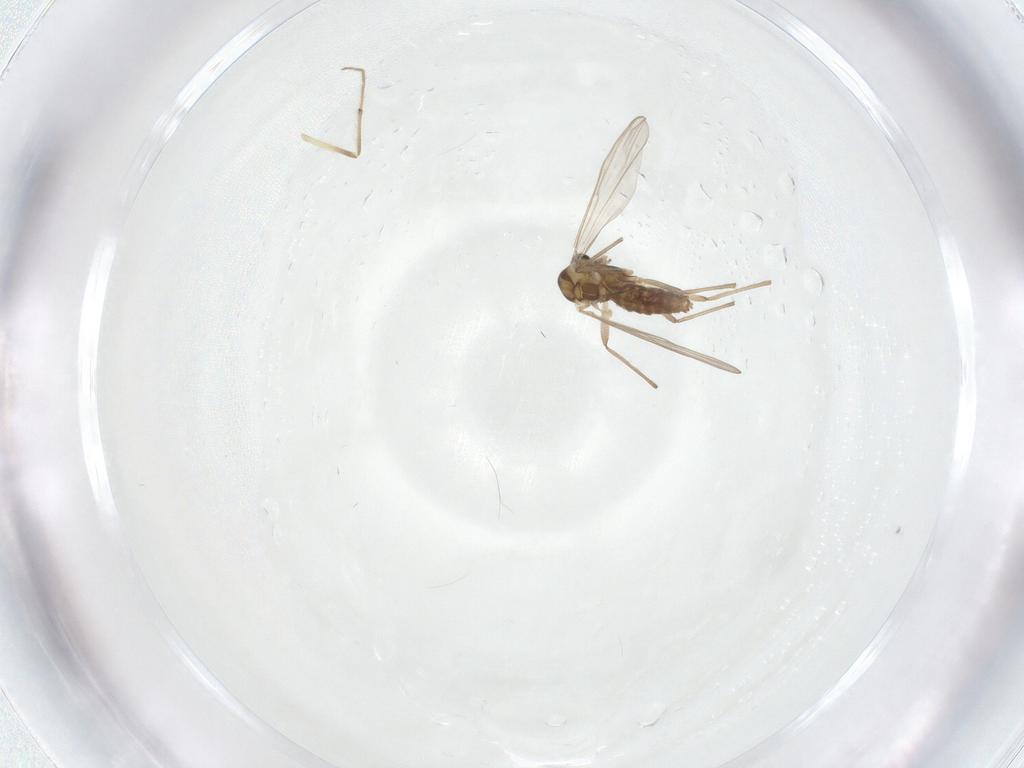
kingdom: Animalia
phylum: Arthropoda
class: Insecta
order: Diptera
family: Chironomidae
